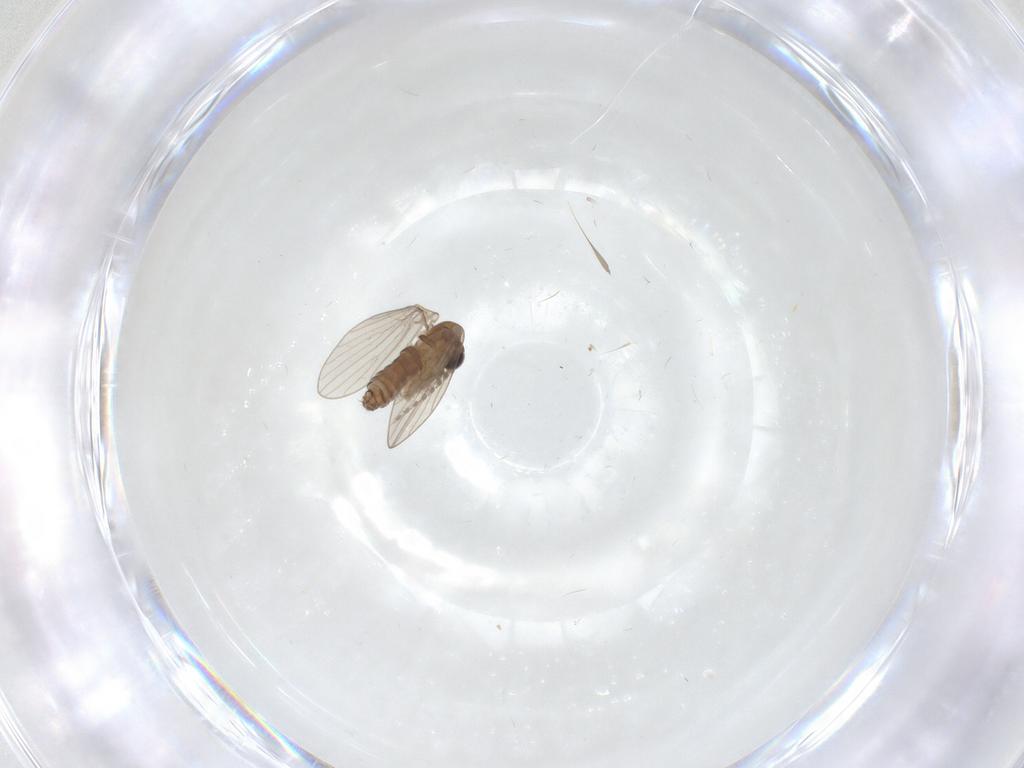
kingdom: Animalia
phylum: Arthropoda
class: Insecta
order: Diptera
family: Psychodidae
